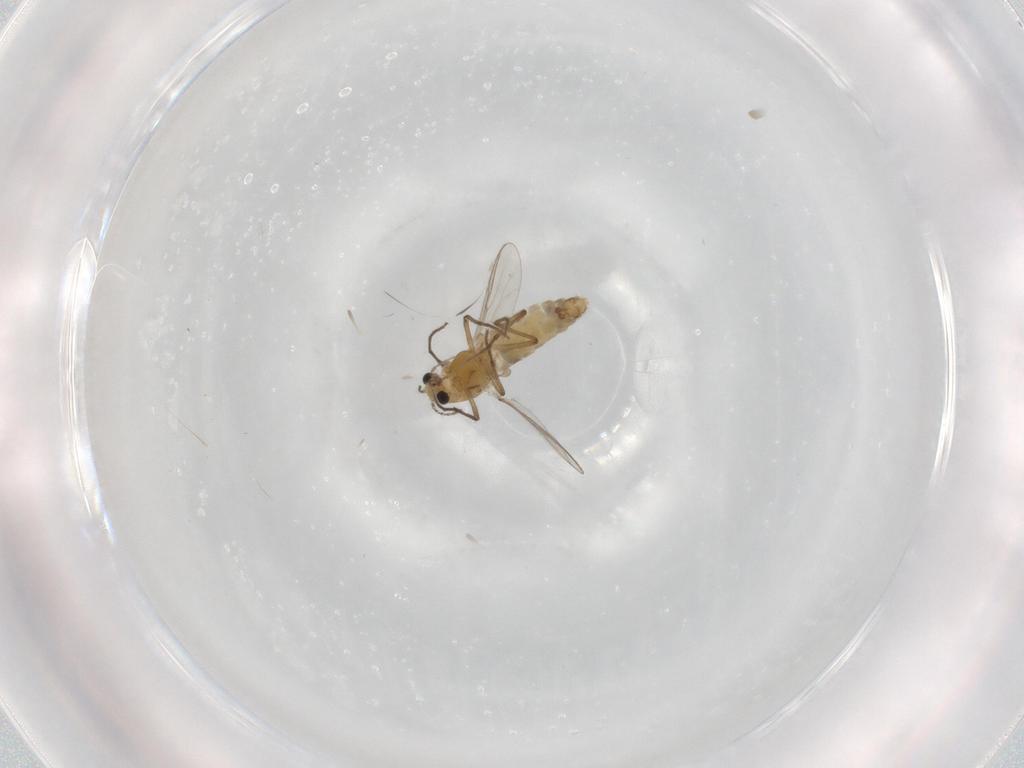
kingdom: Animalia
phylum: Arthropoda
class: Insecta
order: Diptera
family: Chironomidae
